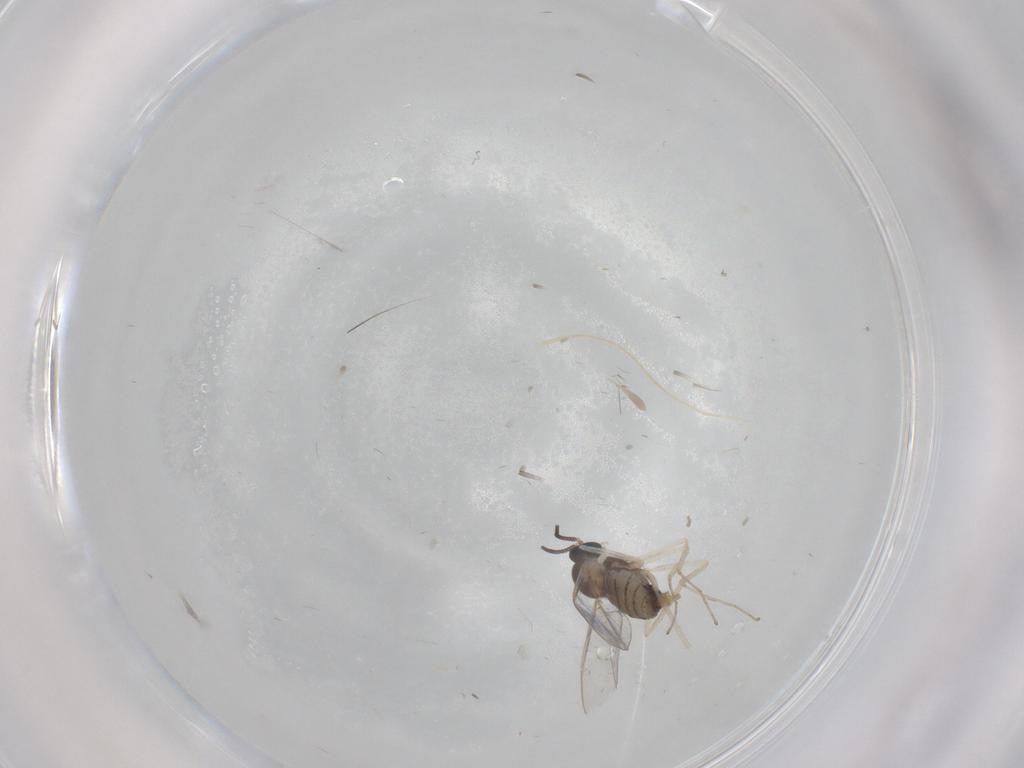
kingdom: Animalia
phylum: Arthropoda
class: Insecta
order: Diptera
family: Cecidomyiidae
